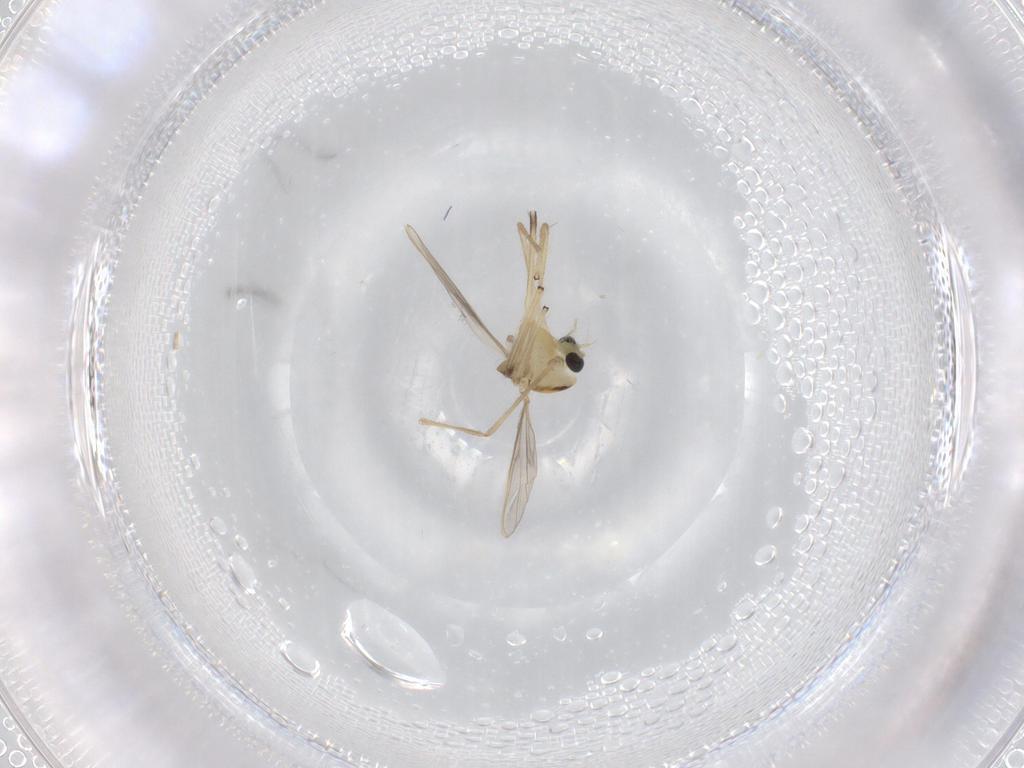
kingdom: Animalia
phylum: Arthropoda
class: Insecta
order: Diptera
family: Chironomidae
